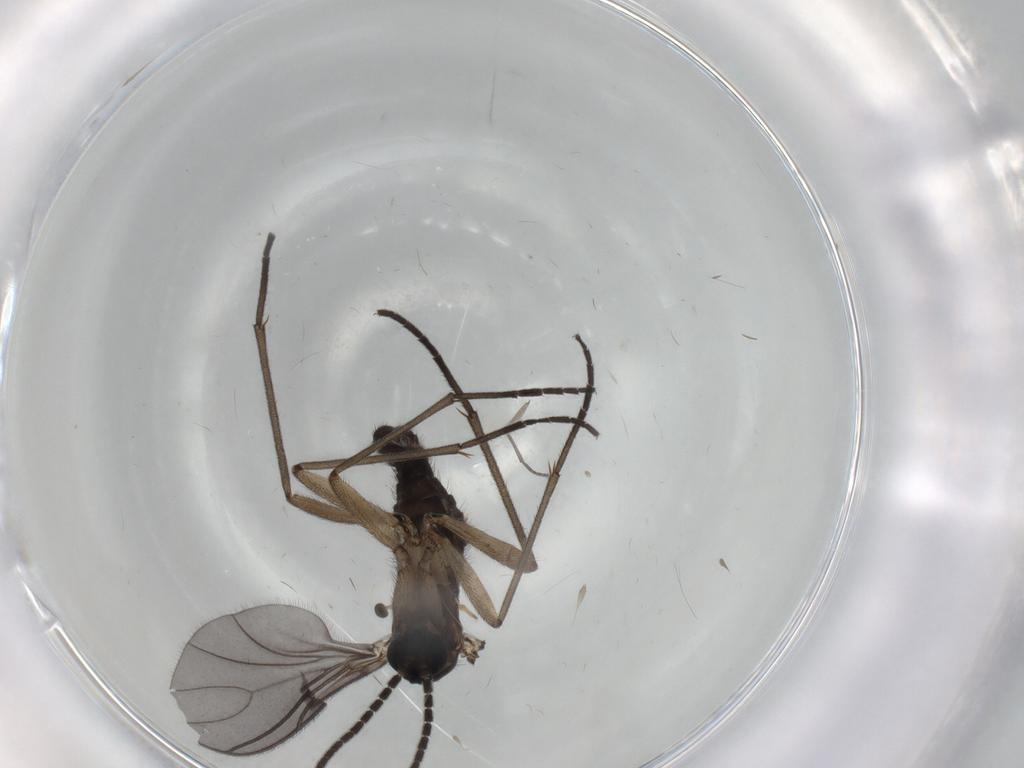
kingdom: Animalia
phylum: Arthropoda
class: Insecta
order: Diptera
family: Sciaridae
